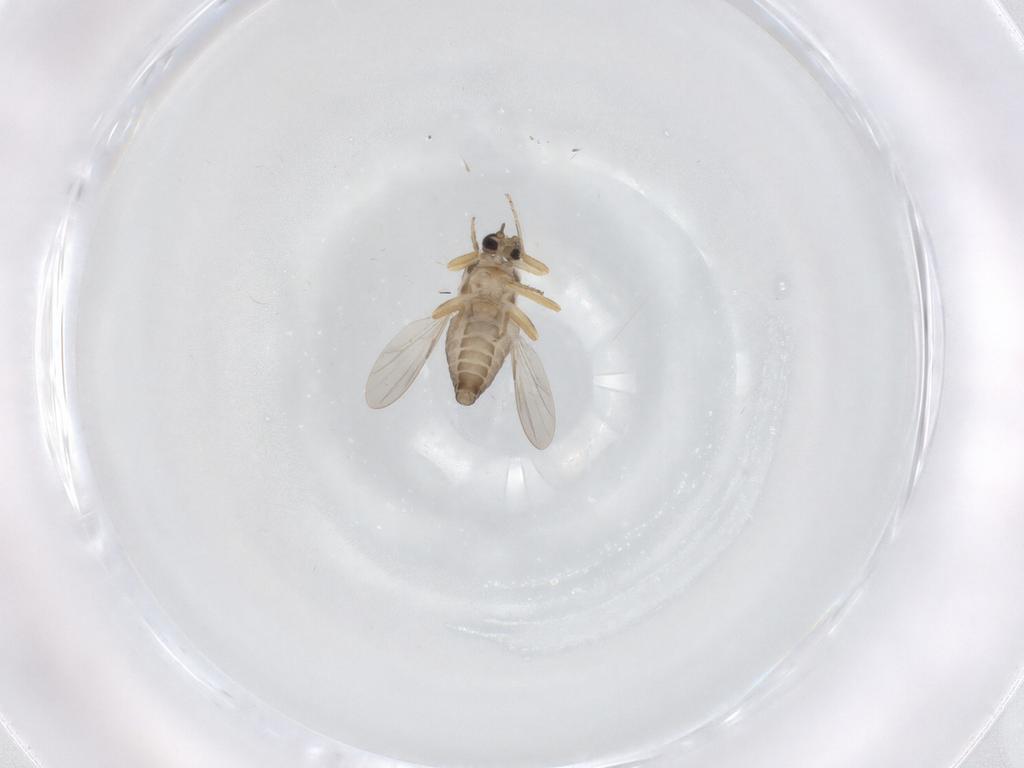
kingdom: Animalia
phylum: Arthropoda
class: Insecta
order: Diptera
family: Ceratopogonidae
